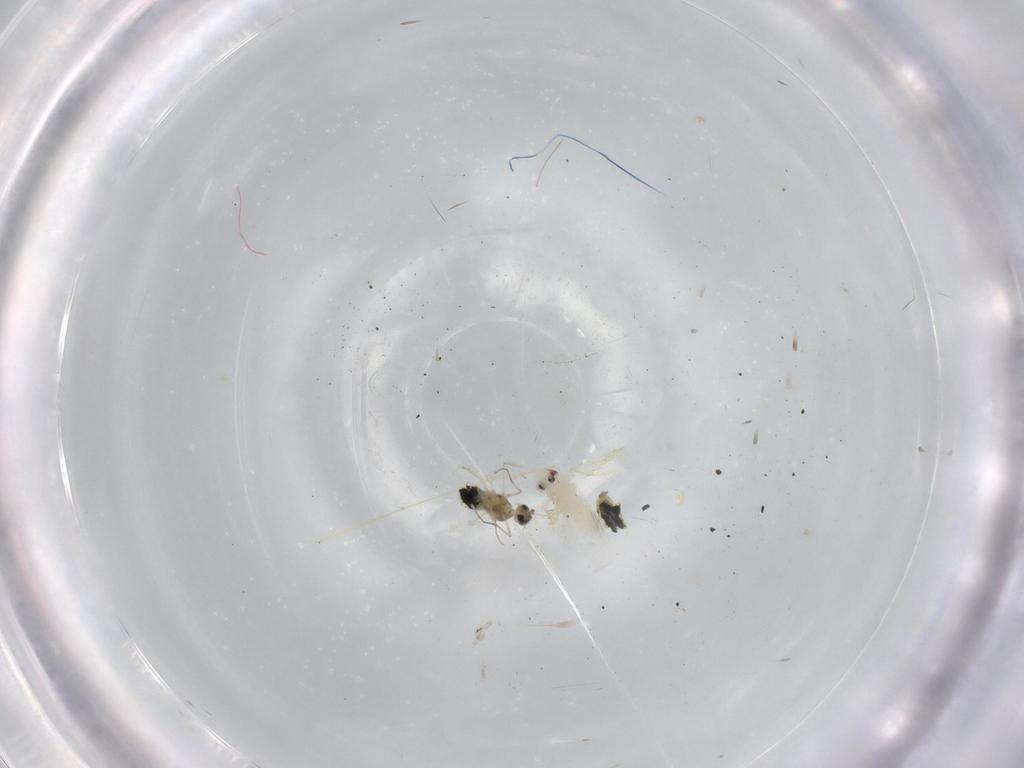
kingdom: Animalia
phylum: Arthropoda
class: Insecta
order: Hemiptera
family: Aleyrodidae
